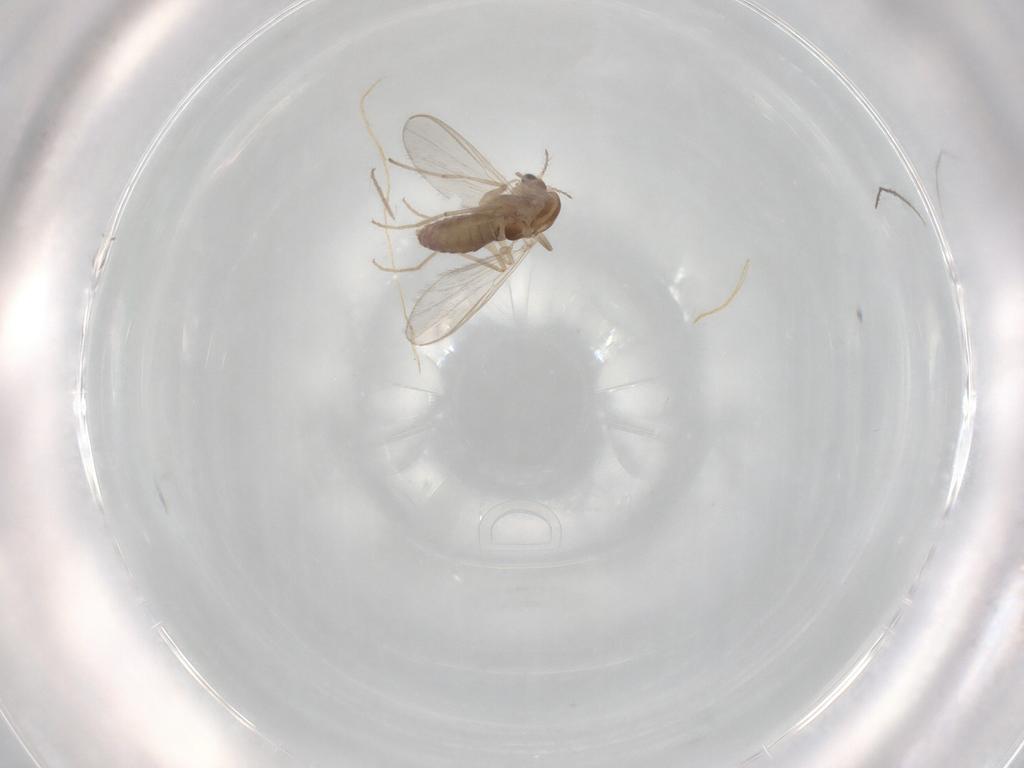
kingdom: Animalia
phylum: Arthropoda
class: Insecta
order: Diptera
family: Chironomidae
